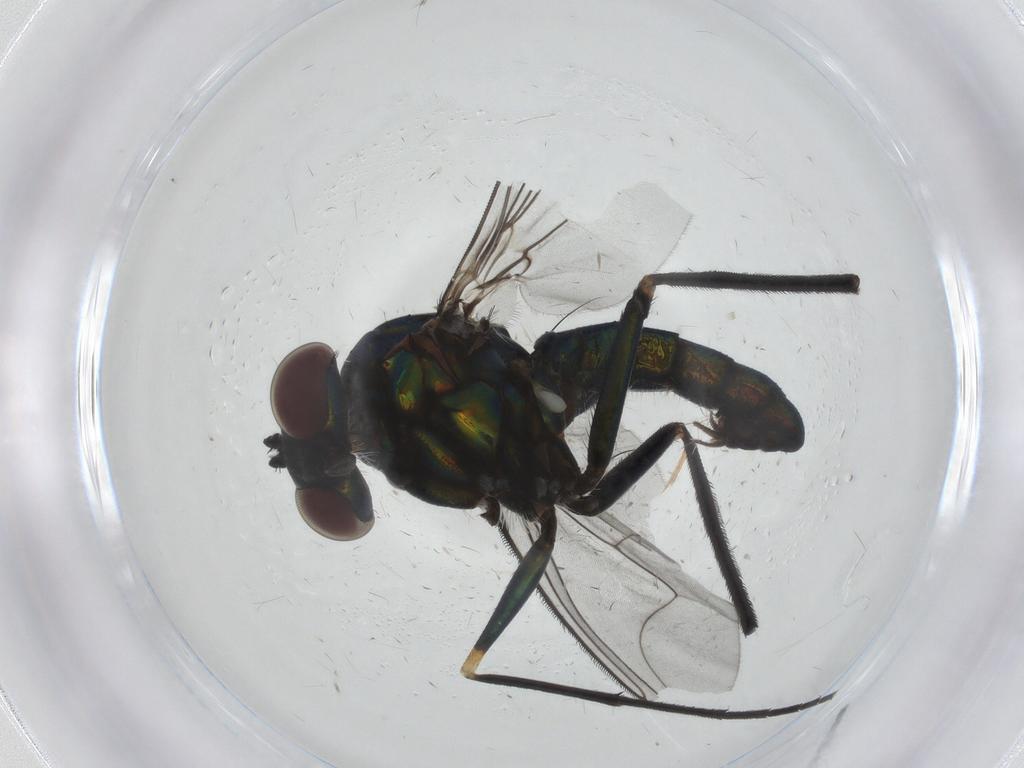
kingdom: Animalia
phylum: Arthropoda
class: Insecta
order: Diptera
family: Dolichopodidae
